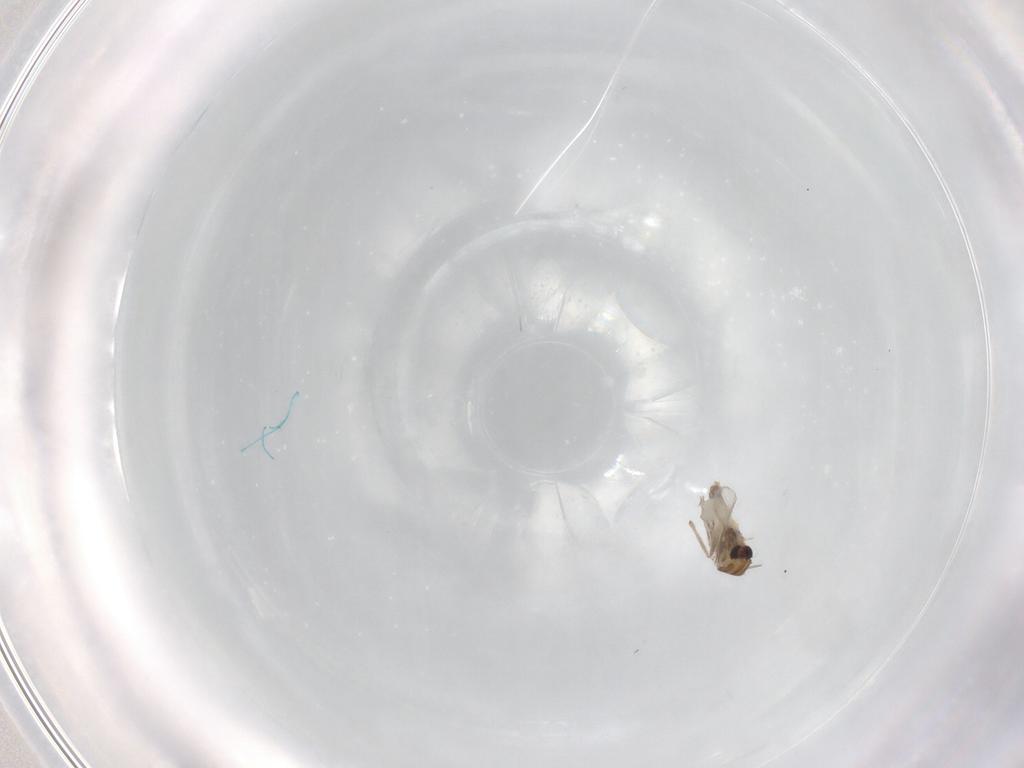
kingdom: Animalia
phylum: Arthropoda
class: Insecta
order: Diptera
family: Chironomidae
